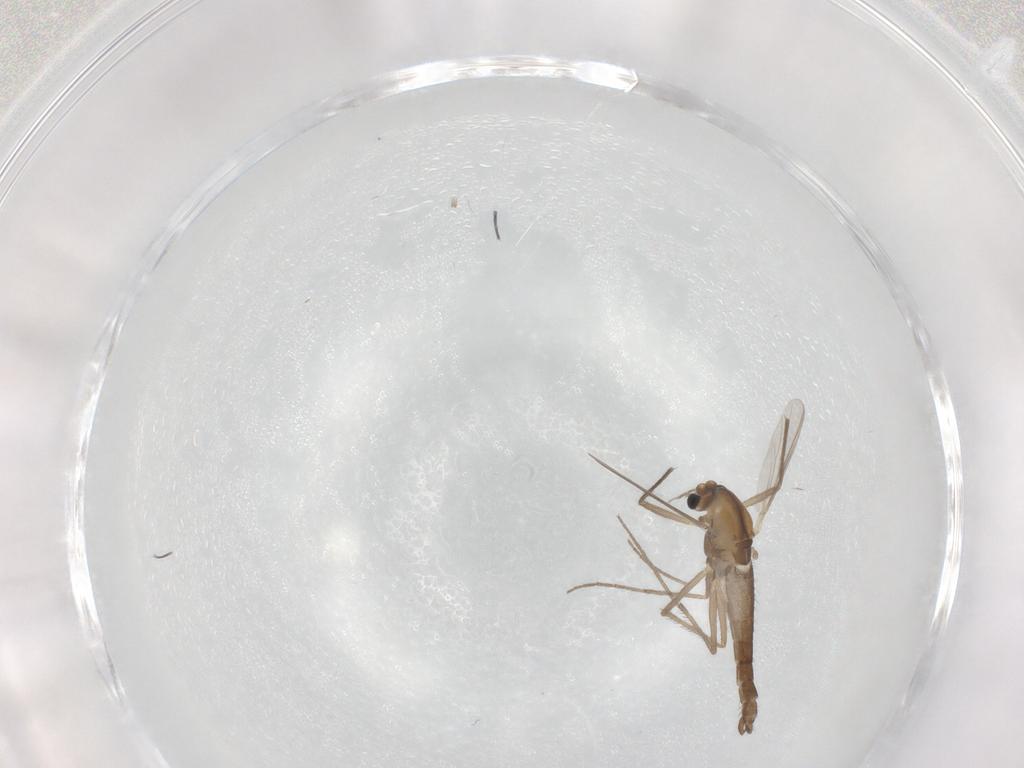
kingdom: Animalia
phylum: Arthropoda
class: Insecta
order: Diptera
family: Chironomidae
